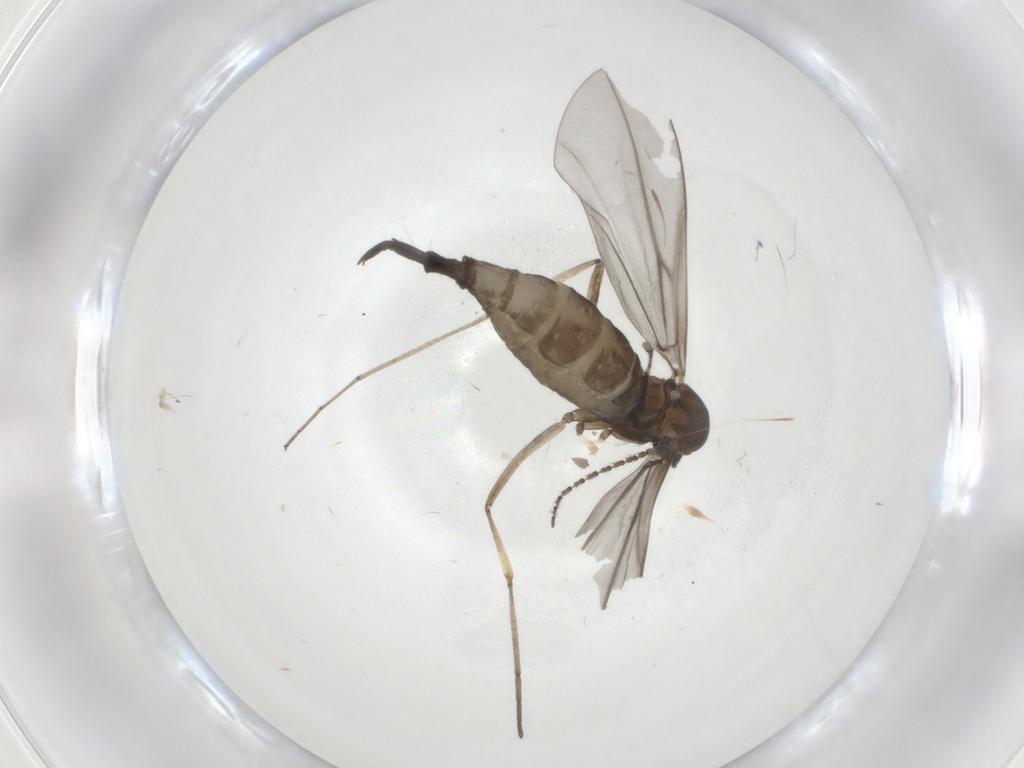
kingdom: Animalia
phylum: Arthropoda
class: Insecta
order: Diptera
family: Cecidomyiidae
